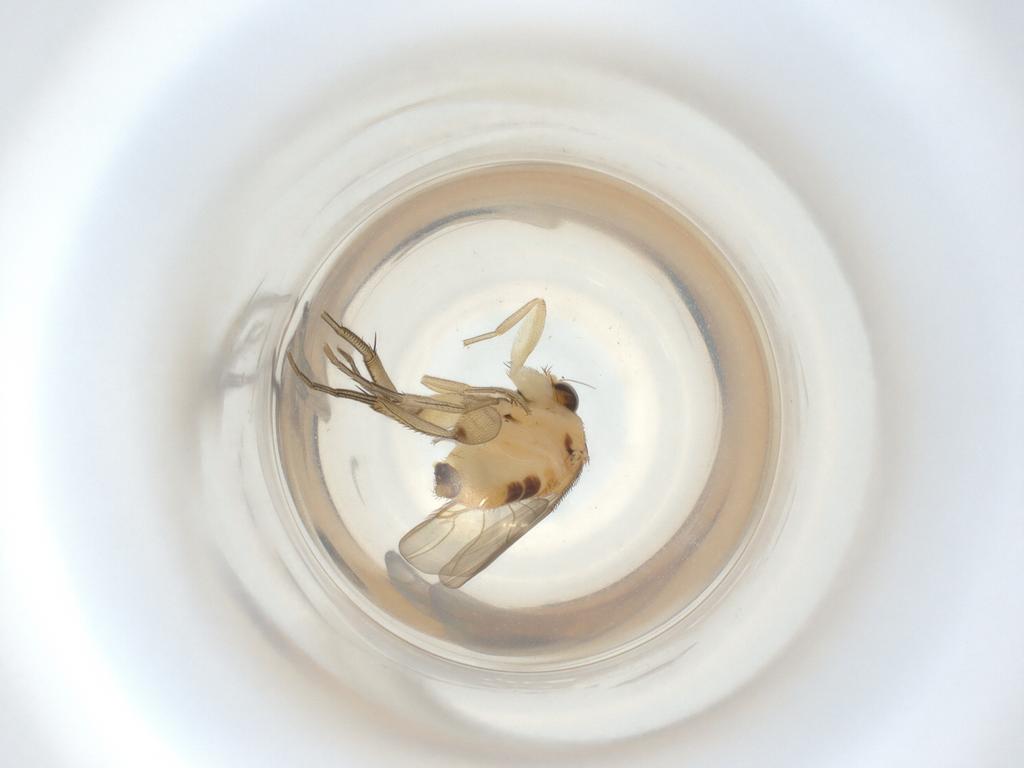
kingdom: Animalia
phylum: Arthropoda
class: Insecta
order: Diptera
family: Phoridae
